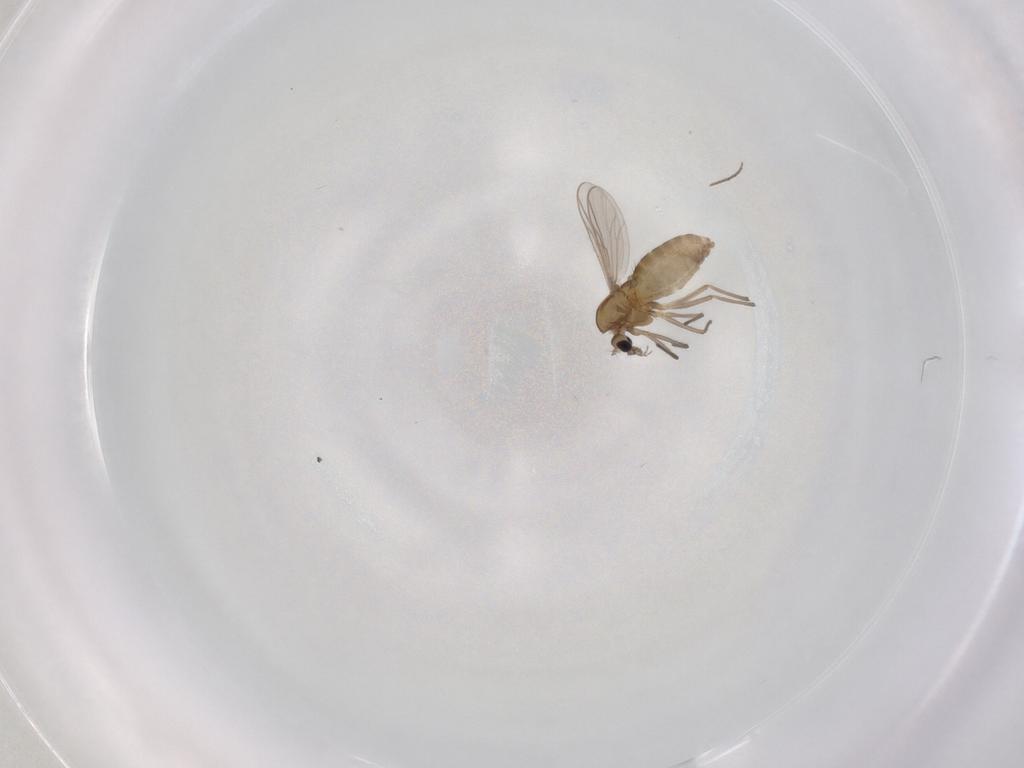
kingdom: Animalia
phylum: Arthropoda
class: Insecta
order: Diptera
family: Chironomidae
